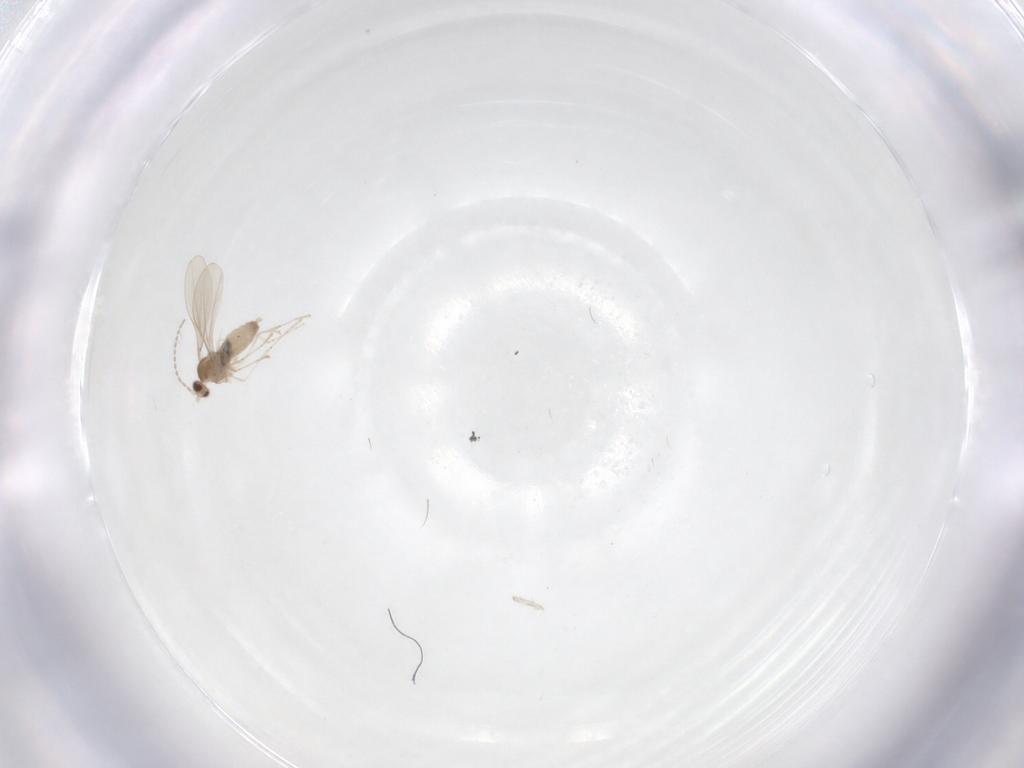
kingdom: Animalia
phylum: Arthropoda
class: Insecta
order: Diptera
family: Cecidomyiidae
